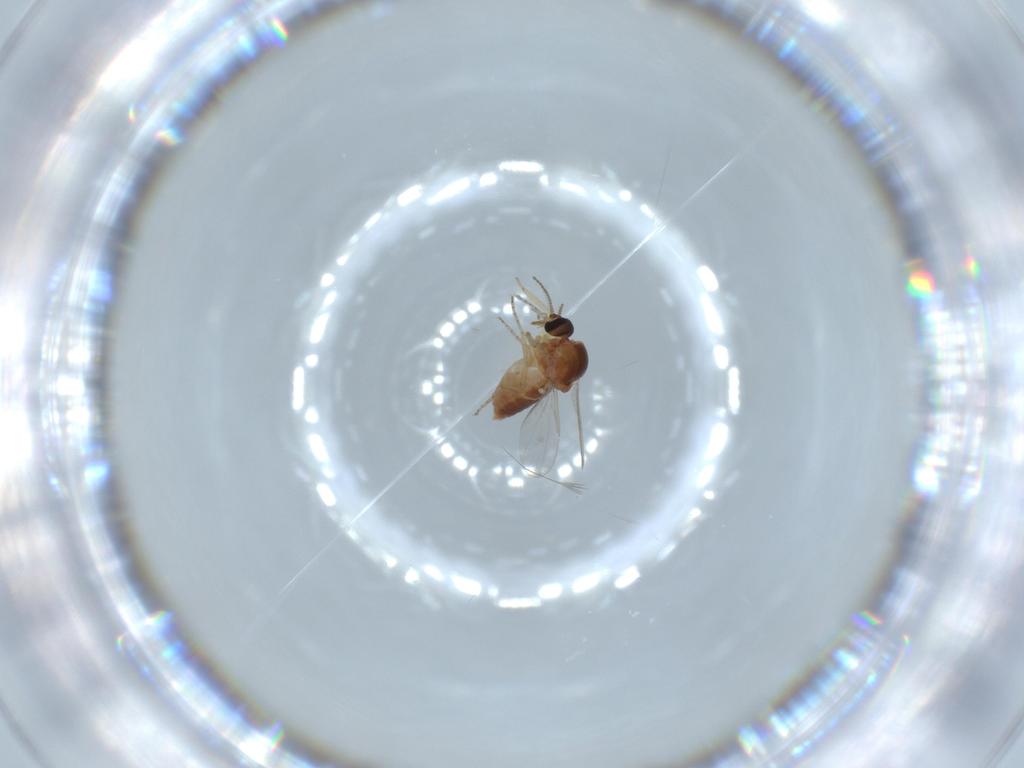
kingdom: Animalia
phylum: Arthropoda
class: Insecta
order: Diptera
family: Ceratopogonidae
